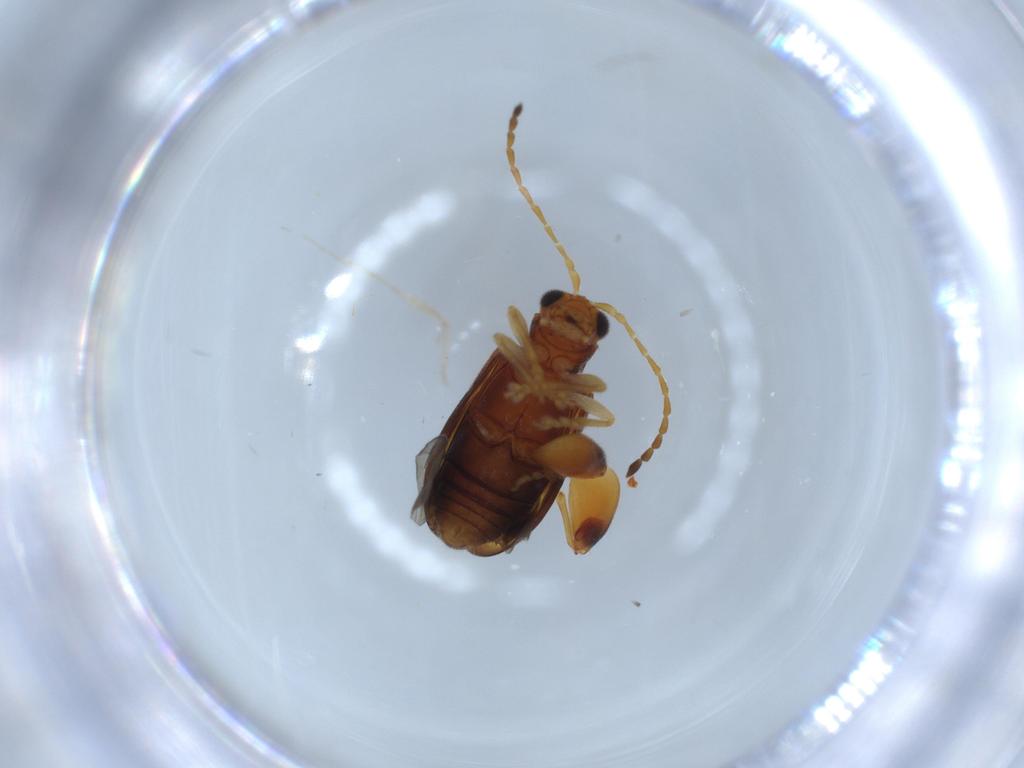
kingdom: Animalia
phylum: Arthropoda
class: Insecta
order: Coleoptera
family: Chrysomelidae
